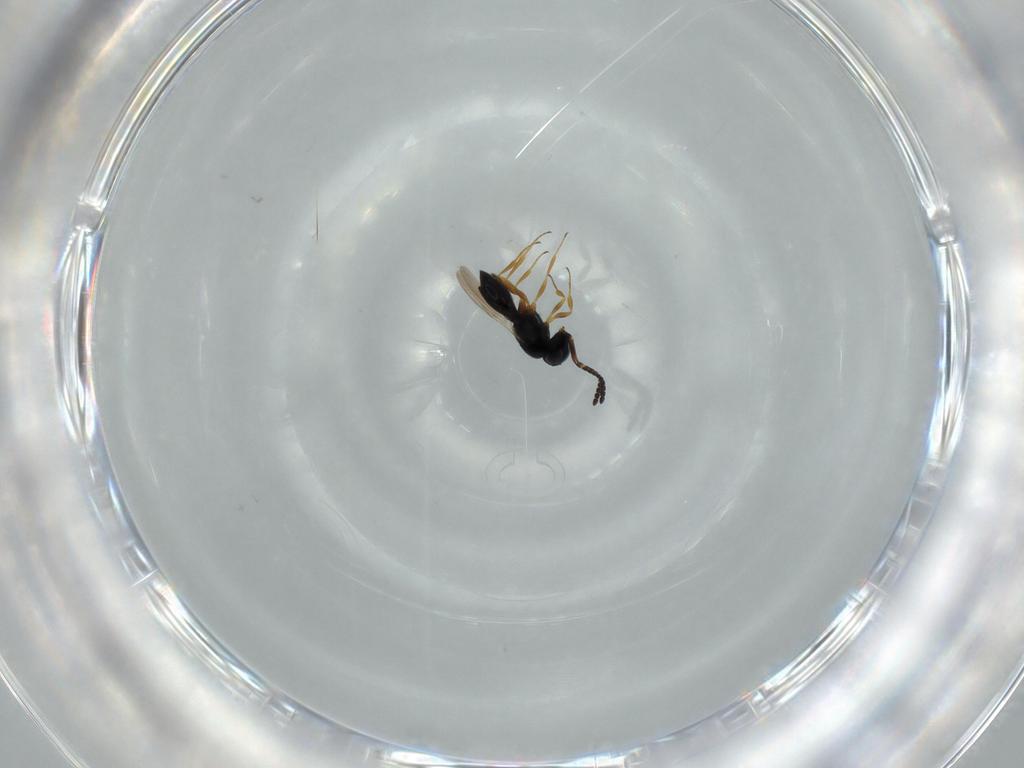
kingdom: Animalia
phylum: Arthropoda
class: Insecta
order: Hymenoptera
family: Scelionidae
